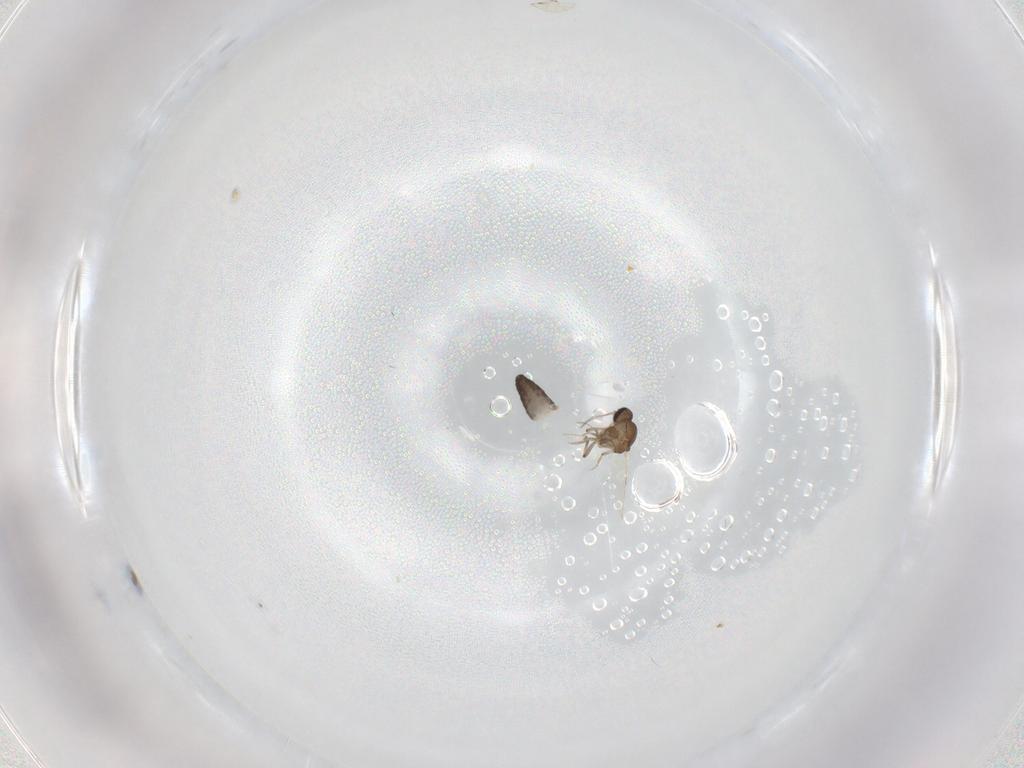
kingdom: Animalia
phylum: Arthropoda
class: Insecta
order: Diptera
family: Ceratopogonidae
